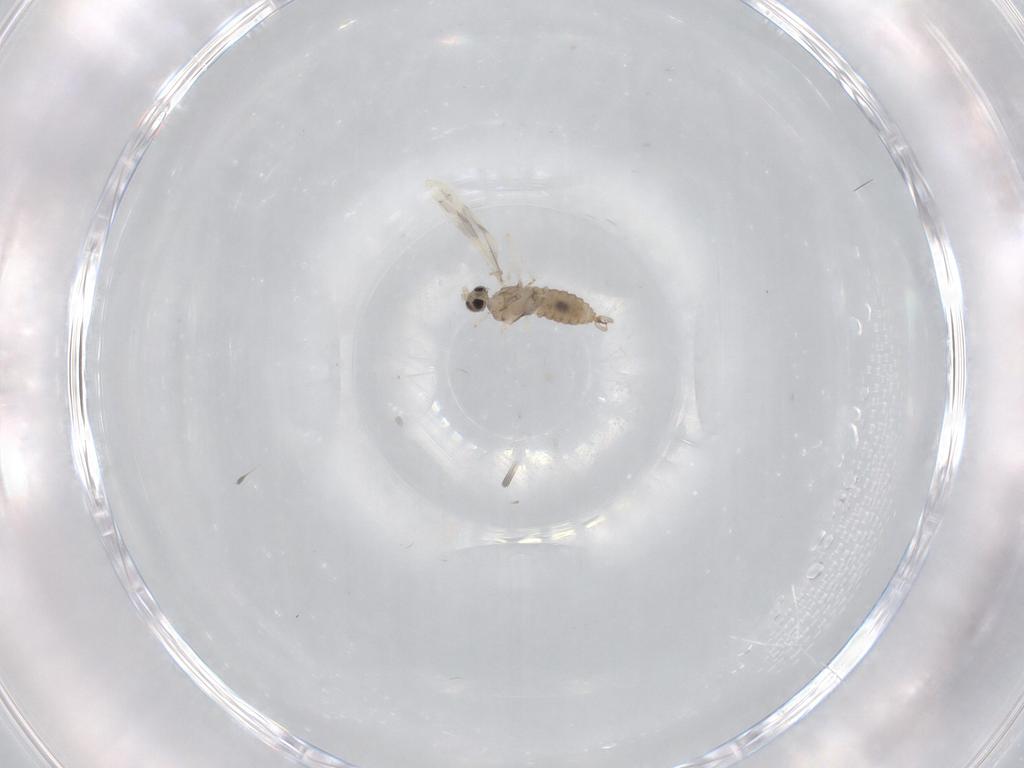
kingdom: Animalia
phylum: Arthropoda
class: Insecta
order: Diptera
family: Cecidomyiidae
